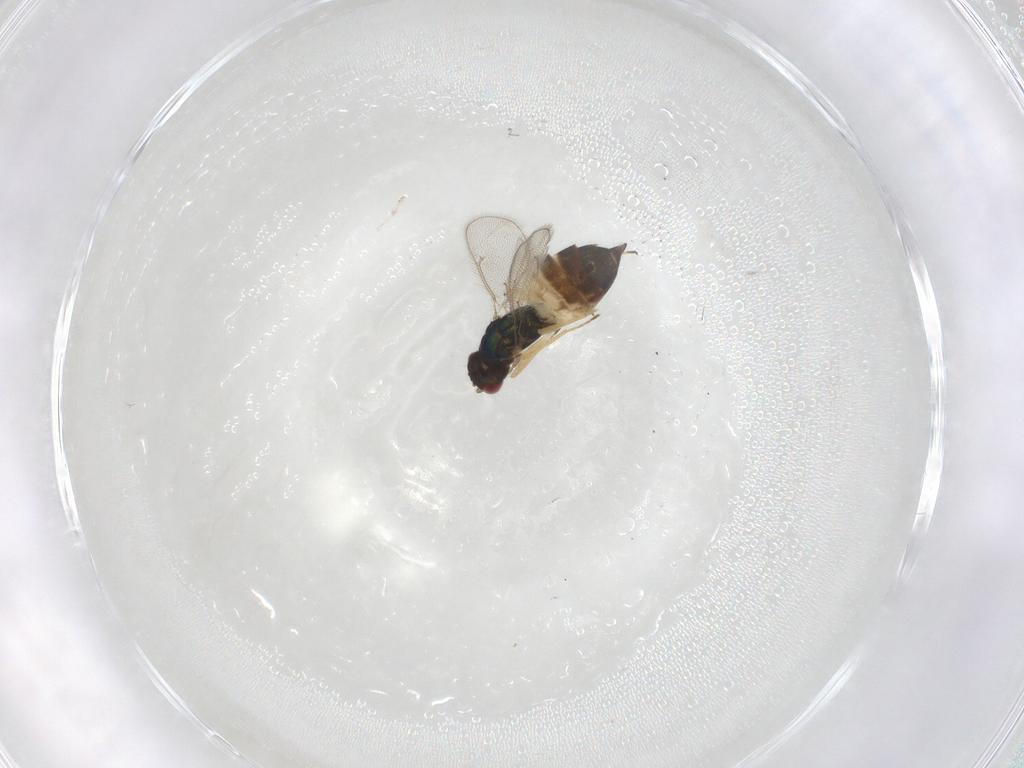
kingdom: Animalia
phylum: Arthropoda
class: Insecta
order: Hymenoptera
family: Eulophidae
